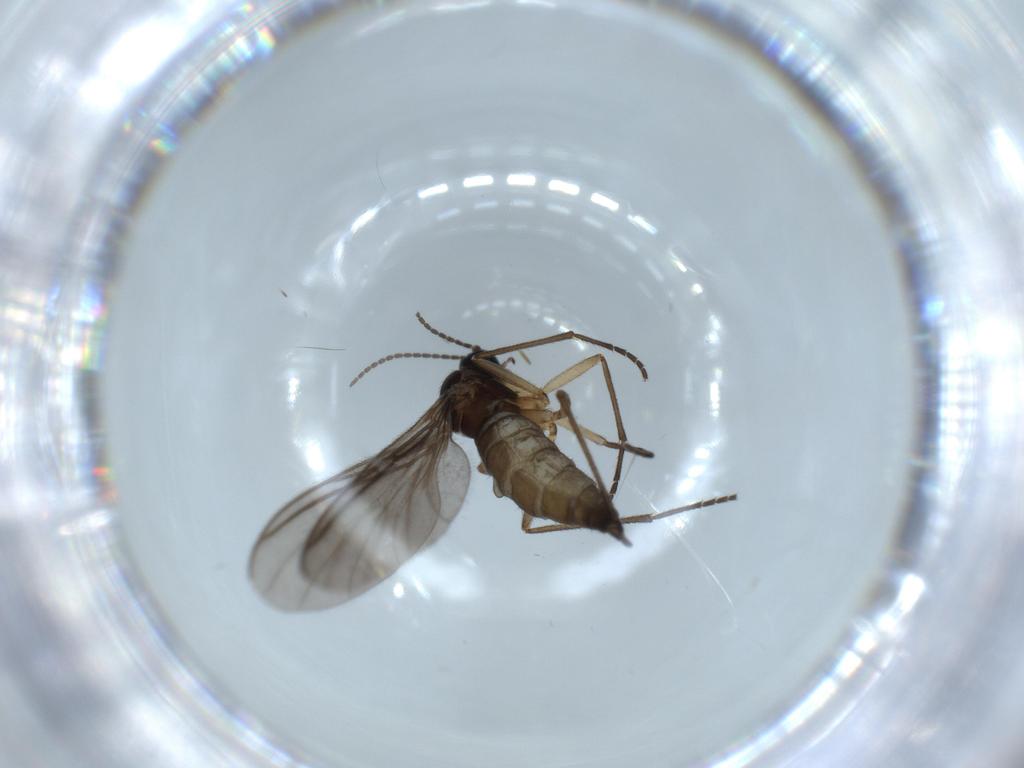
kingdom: Animalia
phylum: Arthropoda
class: Insecta
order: Diptera
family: Sciaridae
